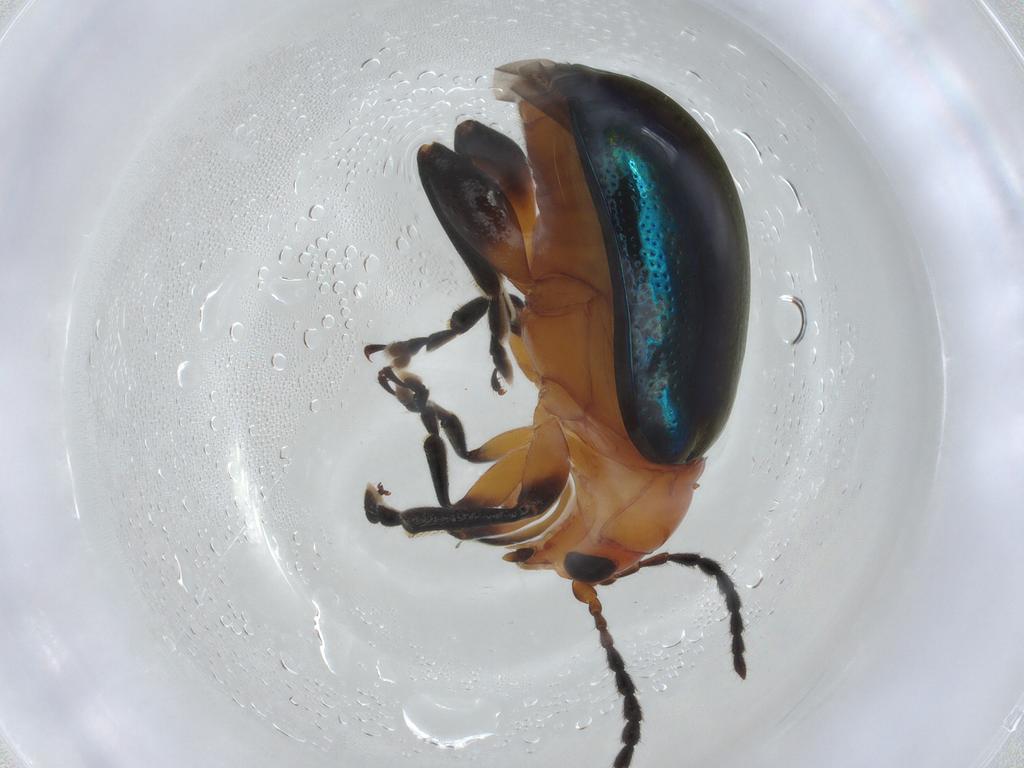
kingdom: Animalia
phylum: Arthropoda
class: Insecta
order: Coleoptera
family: Chrysomelidae
